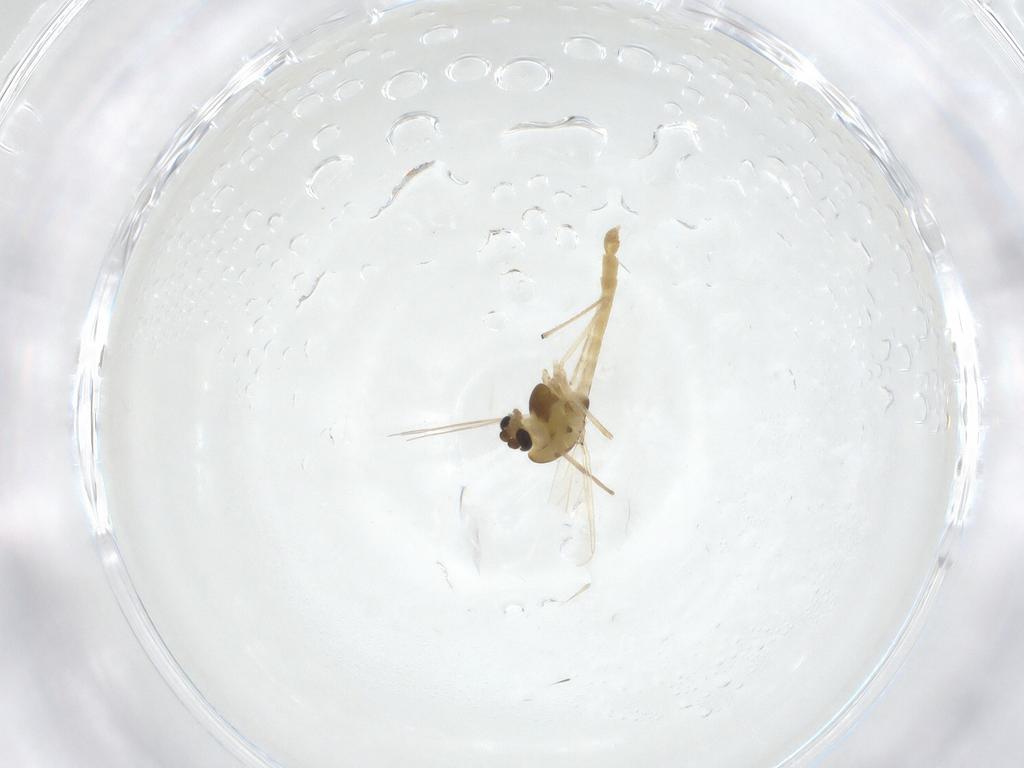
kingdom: Animalia
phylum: Arthropoda
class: Insecta
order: Diptera
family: Chironomidae
